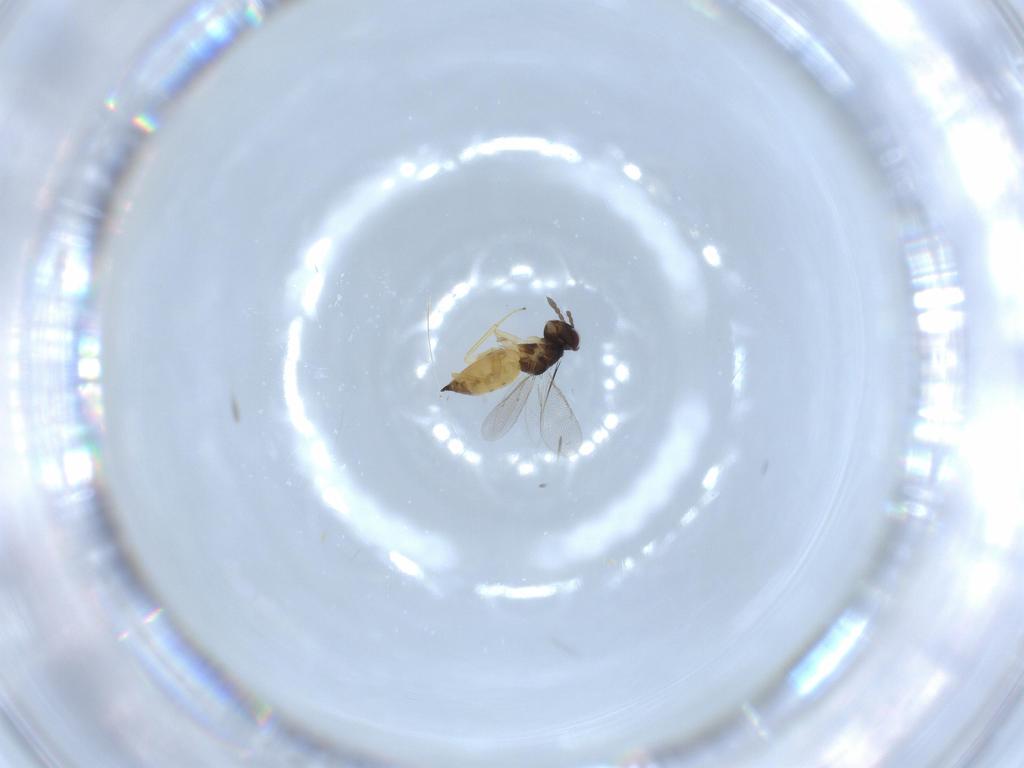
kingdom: Animalia
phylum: Arthropoda
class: Insecta
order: Hymenoptera
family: Eulophidae
